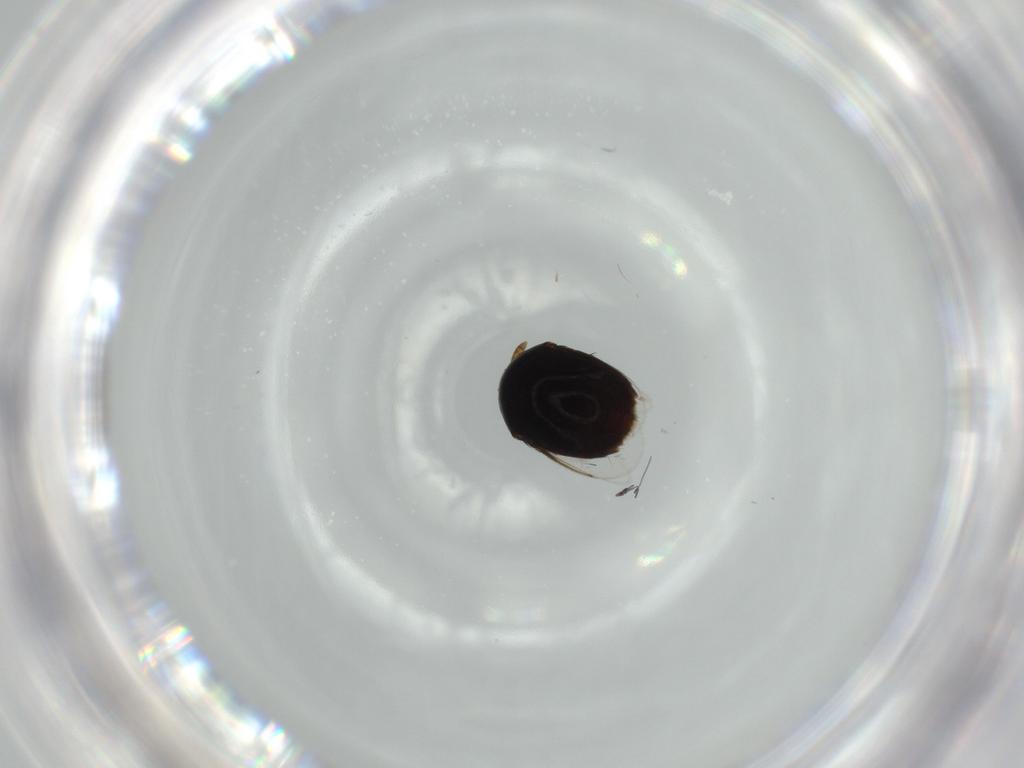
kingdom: Animalia
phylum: Arthropoda
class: Insecta
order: Hymenoptera
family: Aphelinidae
